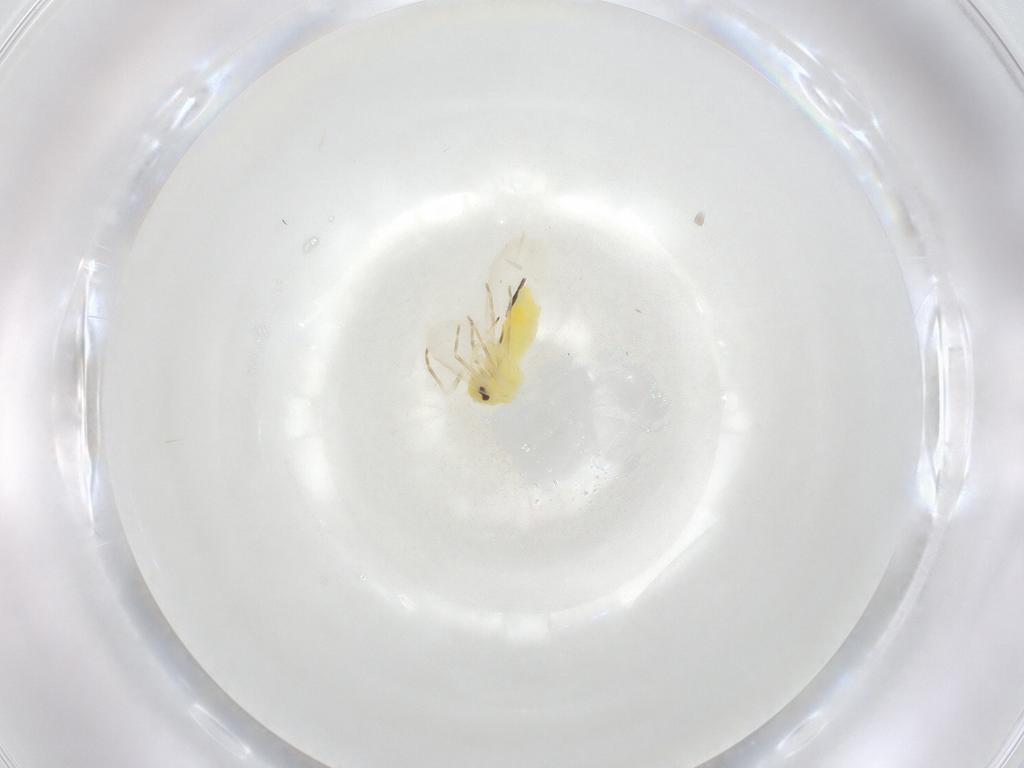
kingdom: Animalia
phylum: Arthropoda
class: Insecta
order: Hemiptera
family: Aleyrodidae
